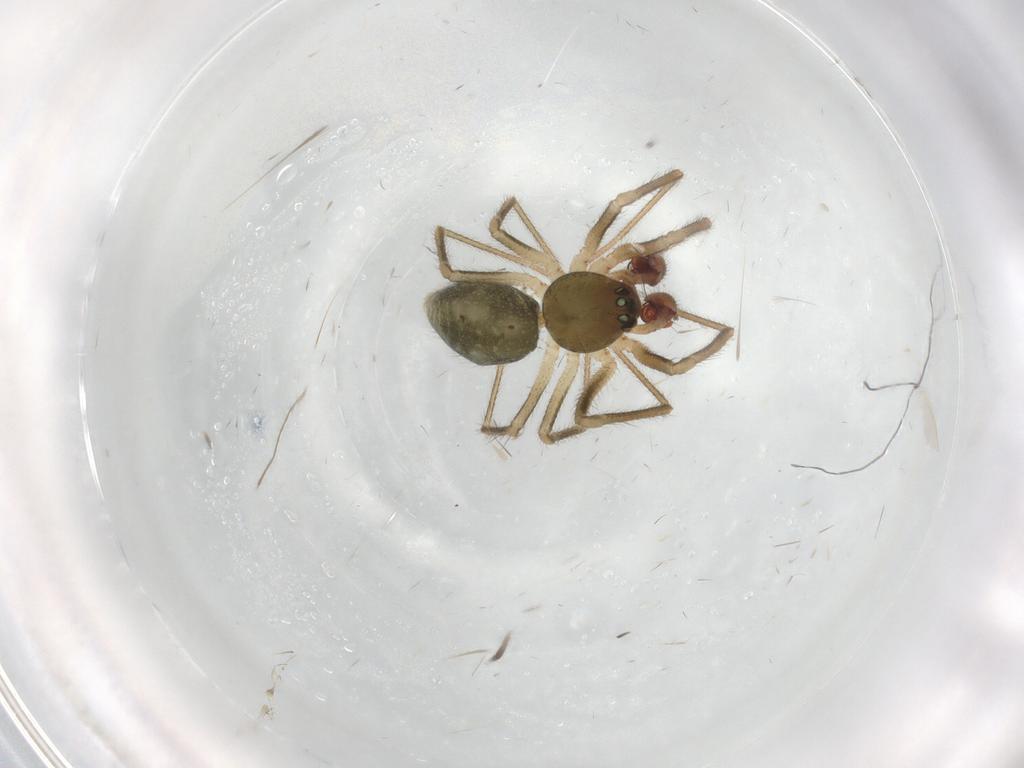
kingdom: Animalia
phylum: Arthropoda
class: Arachnida
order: Araneae
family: Linyphiidae
